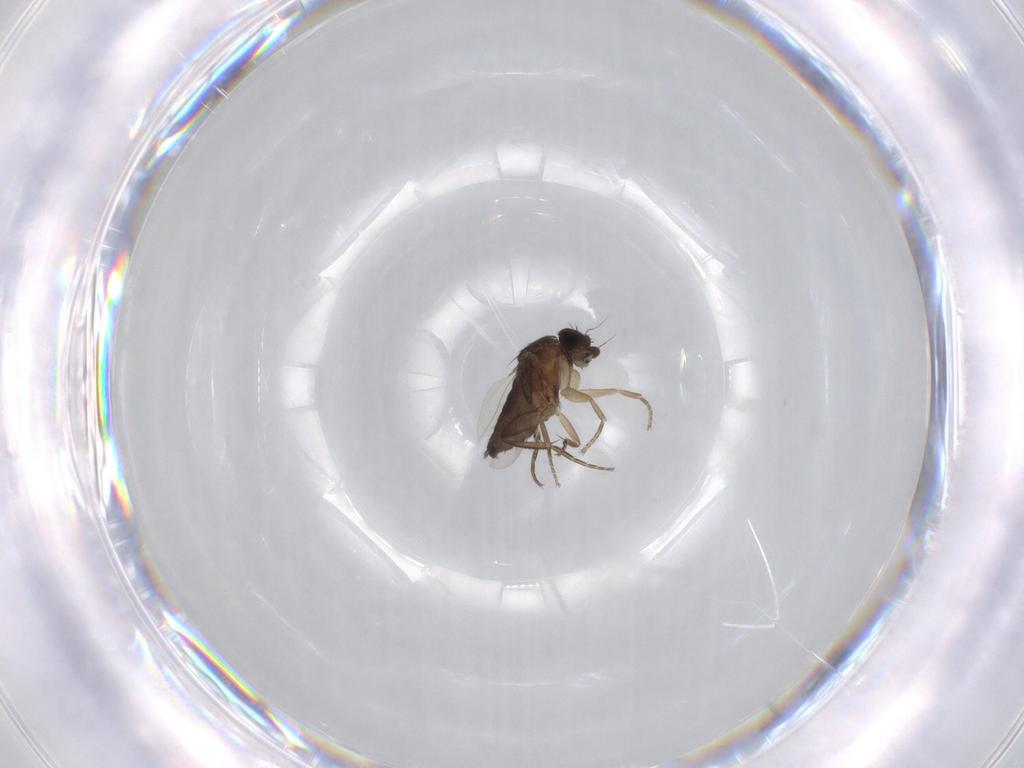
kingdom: Animalia
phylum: Arthropoda
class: Insecta
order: Diptera
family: Phoridae
